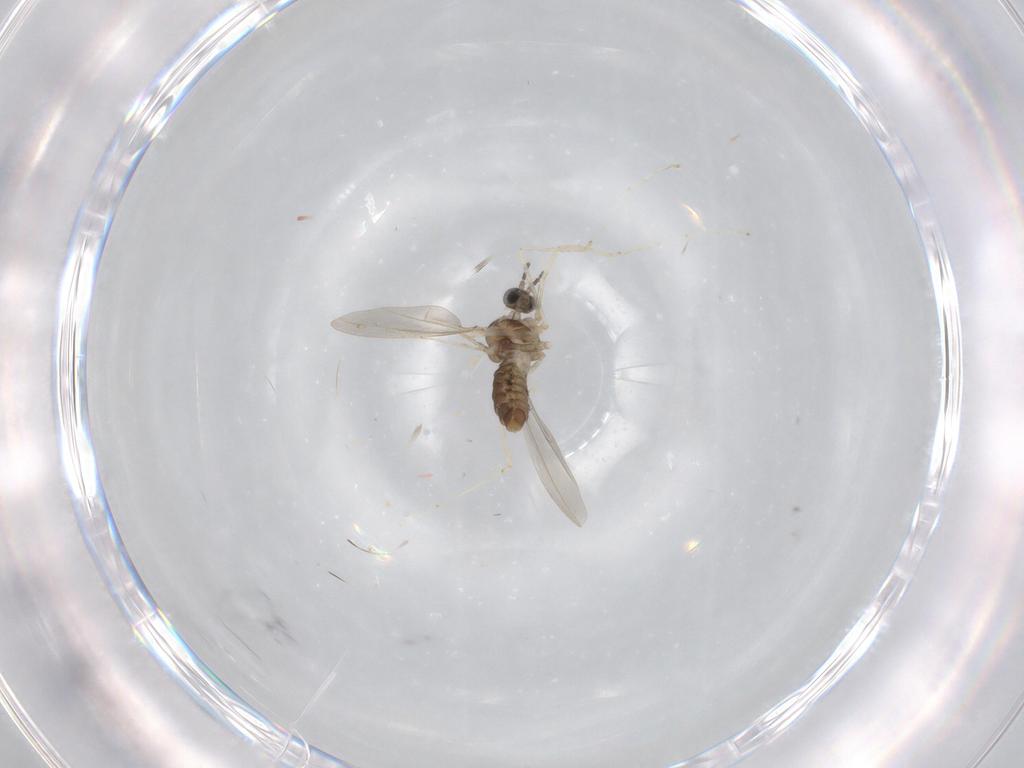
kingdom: Animalia
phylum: Arthropoda
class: Insecta
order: Diptera
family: Cecidomyiidae
